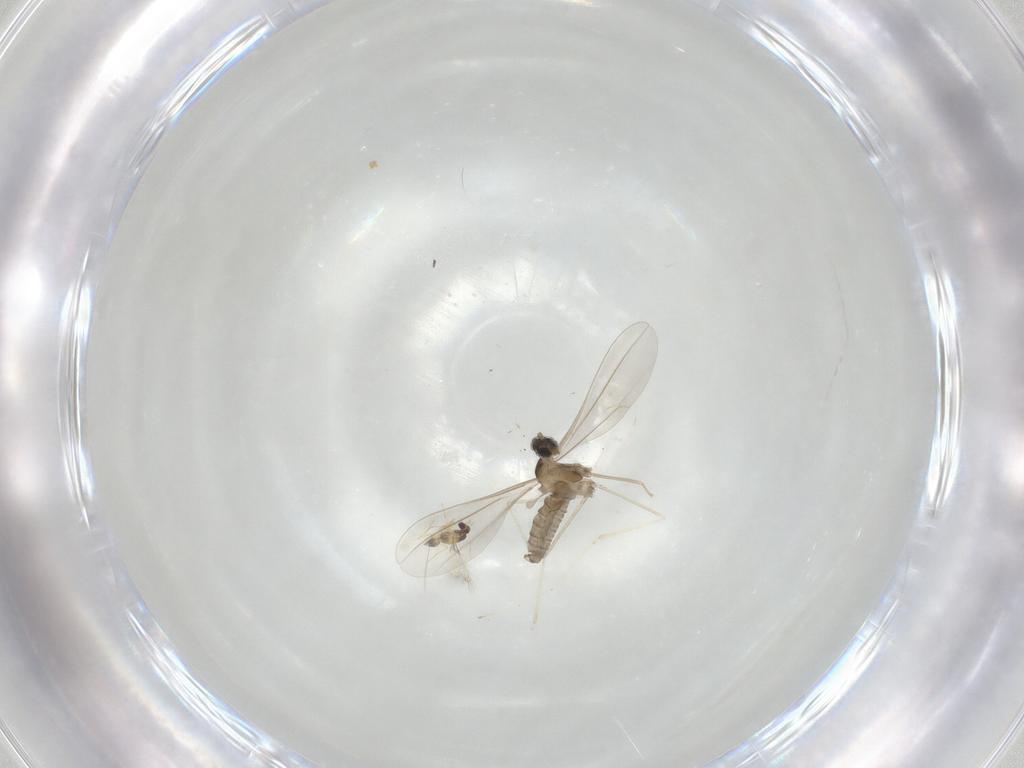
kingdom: Animalia
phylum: Arthropoda
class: Insecta
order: Diptera
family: Cecidomyiidae
